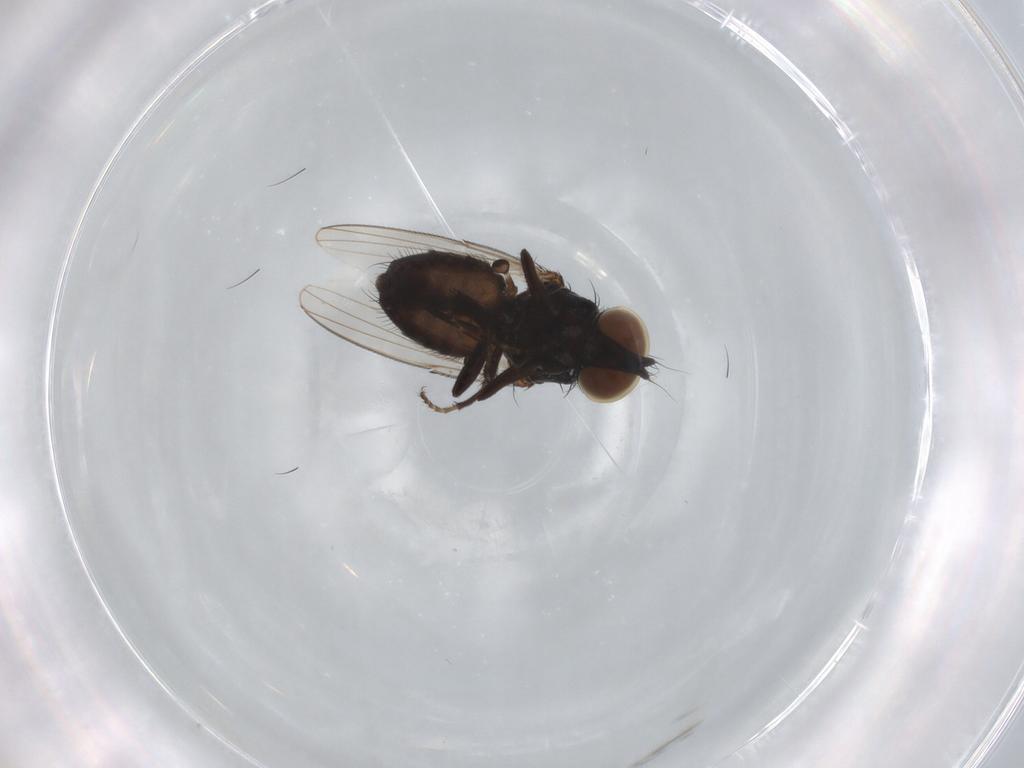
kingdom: Animalia
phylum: Arthropoda
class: Insecta
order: Diptera
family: Milichiidae
